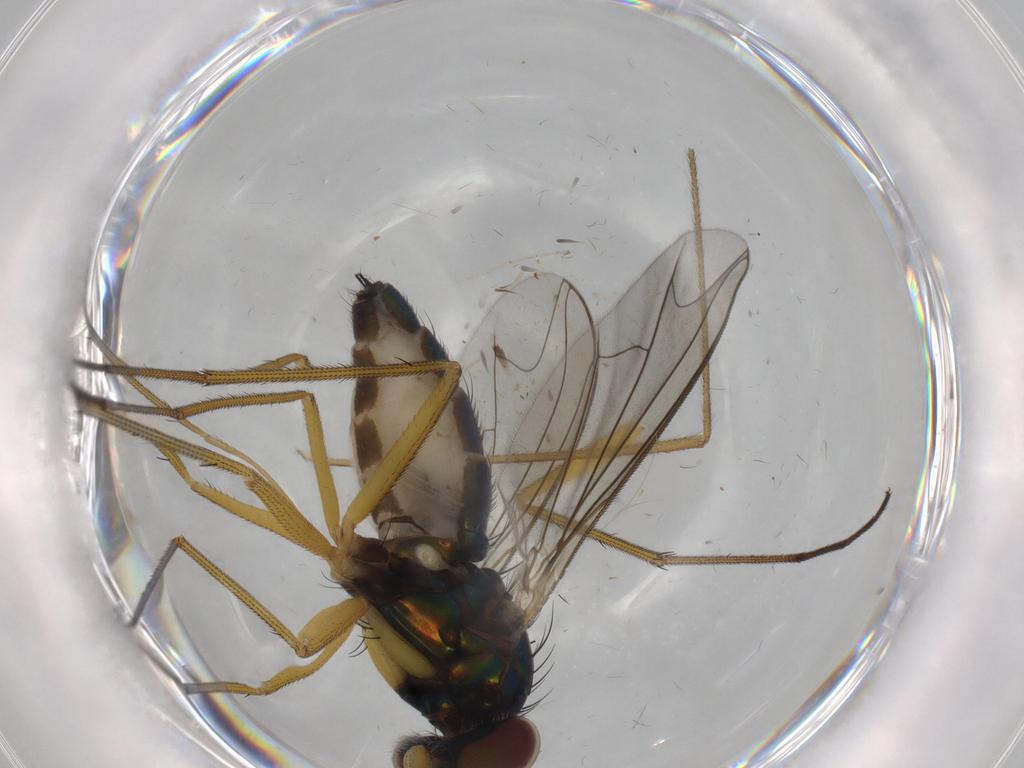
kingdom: Animalia
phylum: Arthropoda
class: Insecta
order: Diptera
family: Dolichopodidae
